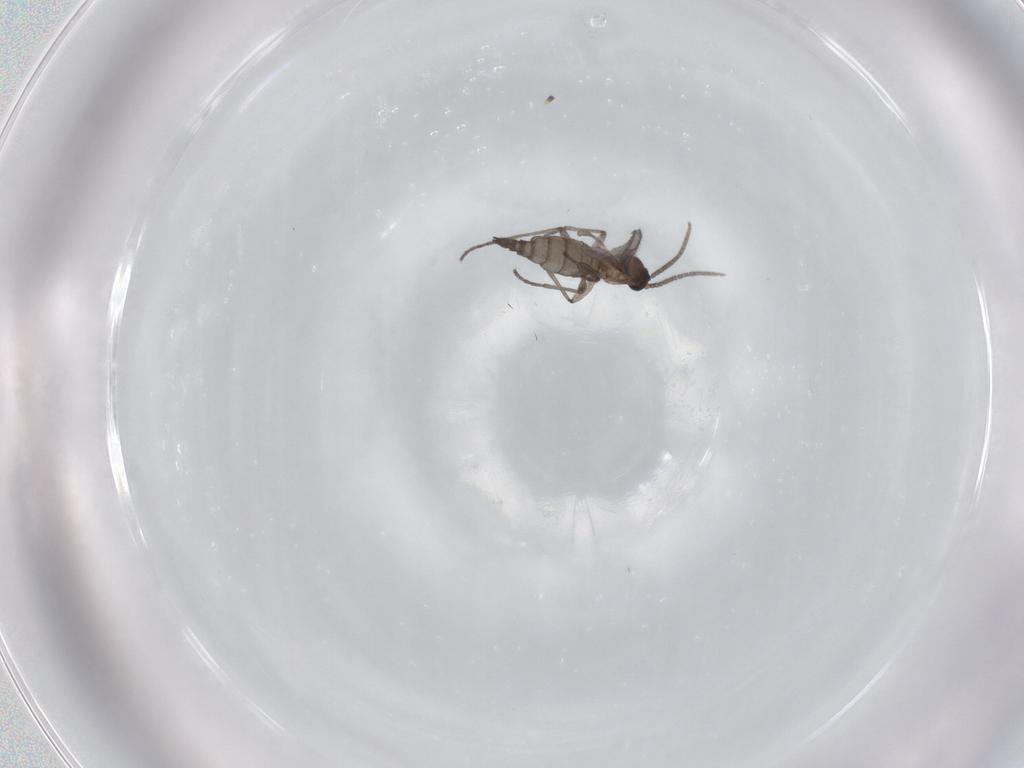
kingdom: Animalia
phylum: Arthropoda
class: Insecta
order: Diptera
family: Sciaridae
